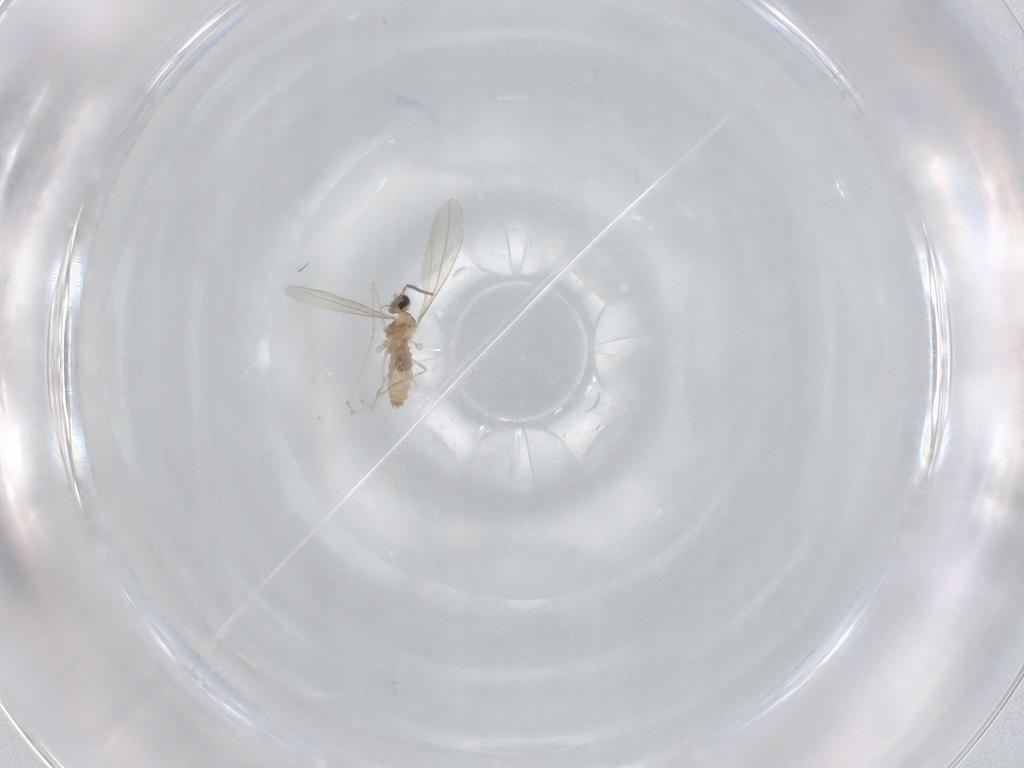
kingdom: Animalia
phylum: Arthropoda
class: Insecta
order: Diptera
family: Cecidomyiidae
